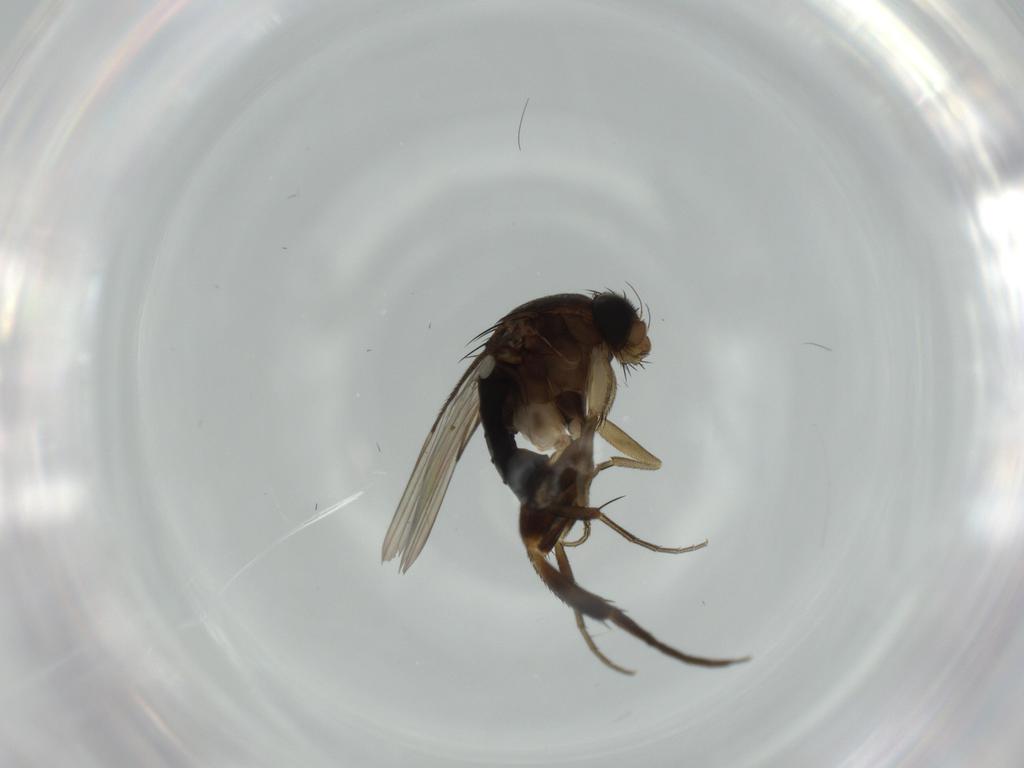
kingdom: Animalia
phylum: Arthropoda
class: Insecta
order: Diptera
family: Phoridae
